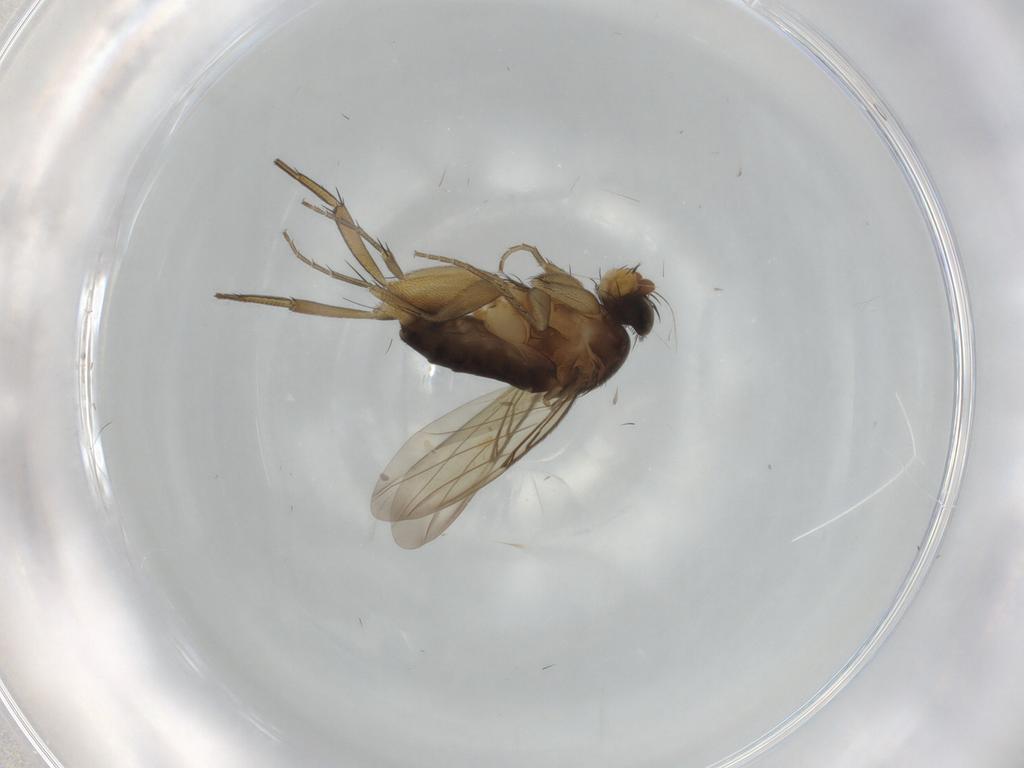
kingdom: Animalia
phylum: Arthropoda
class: Insecta
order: Diptera
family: Phoridae
